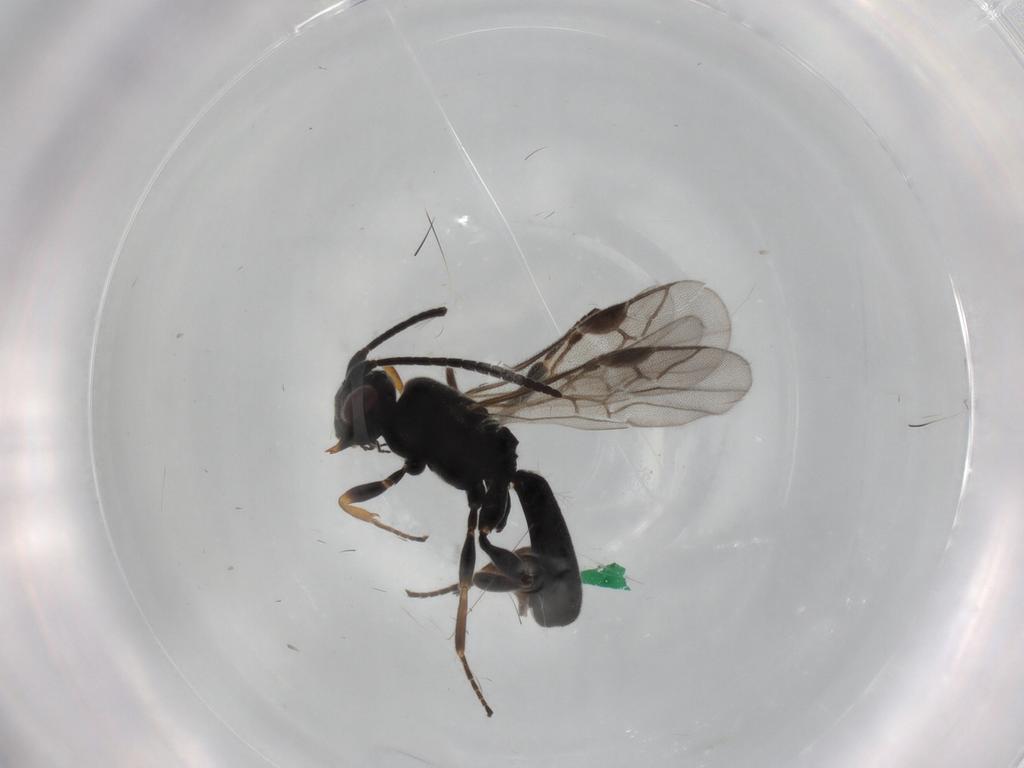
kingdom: Animalia
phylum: Arthropoda
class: Insecta
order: Hymenoptera
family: Braconidae
